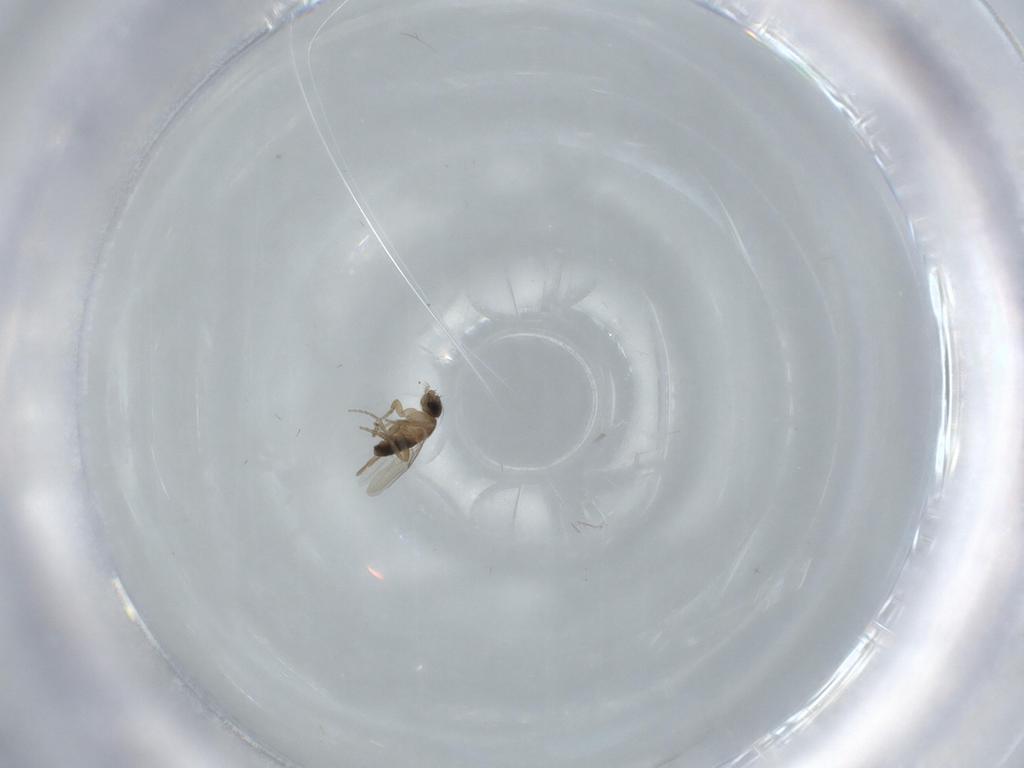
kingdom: Animalia
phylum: Arthropoda
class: Insecta
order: Diptera
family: Phoridae
